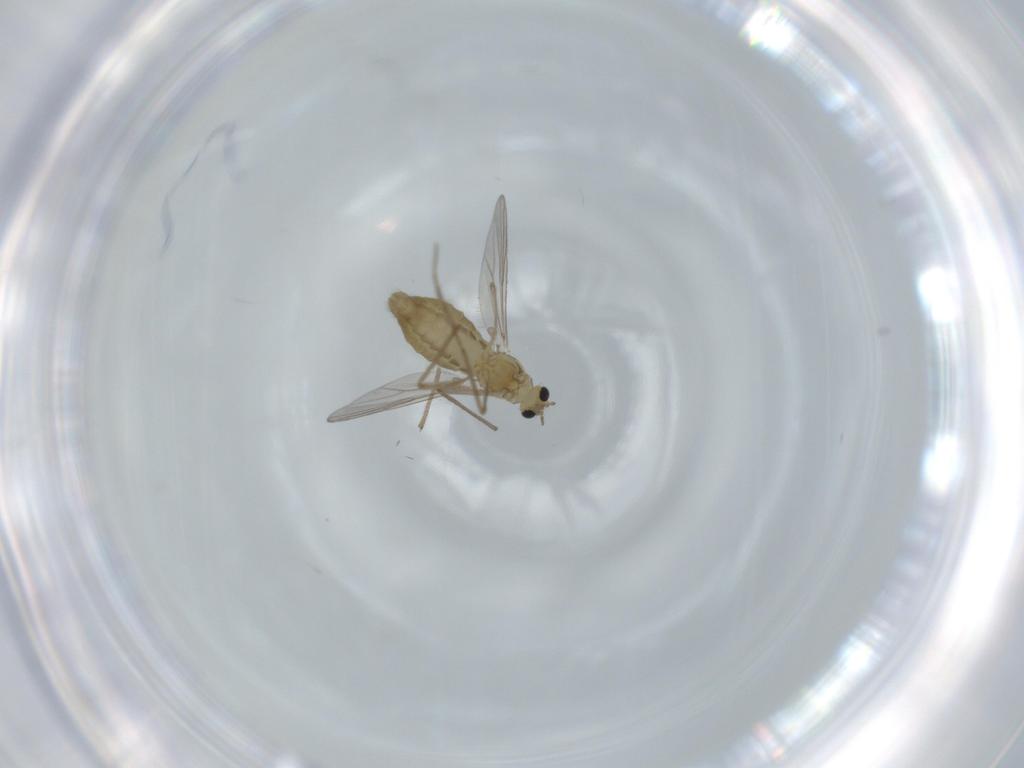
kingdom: Animalia
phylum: Arthropoda
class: Insecta
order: Diptera
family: Chironomidae
